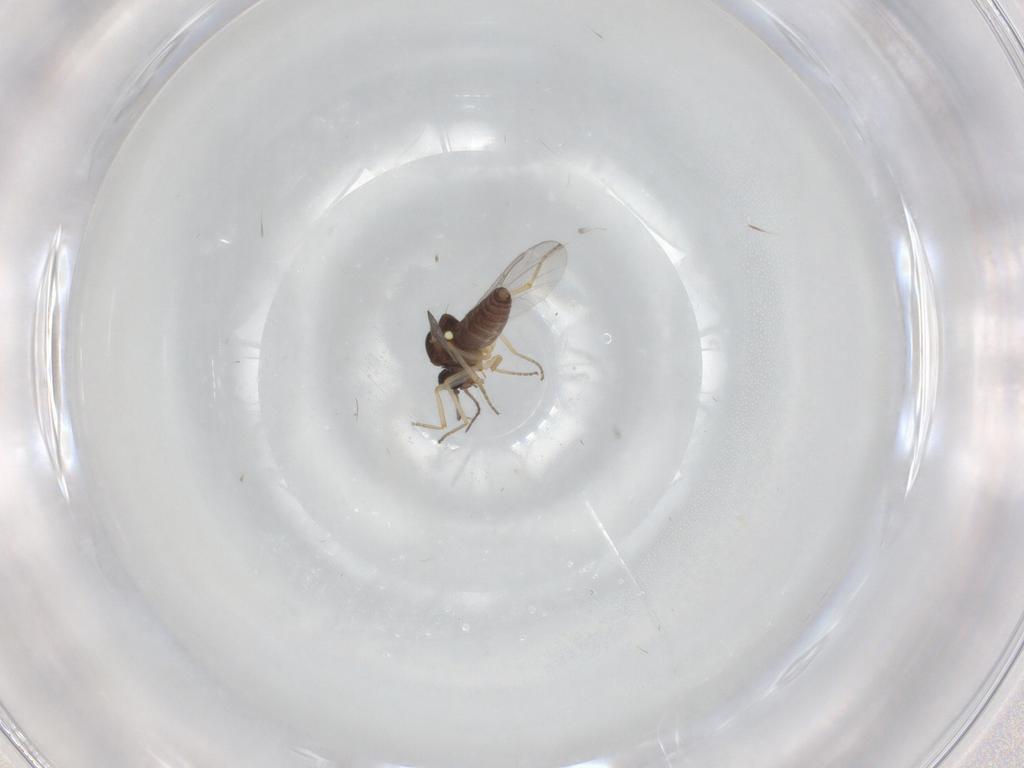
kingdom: Animalia
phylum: Arthropoda
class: Insecta
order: Diptera
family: Ceratopogonidae
